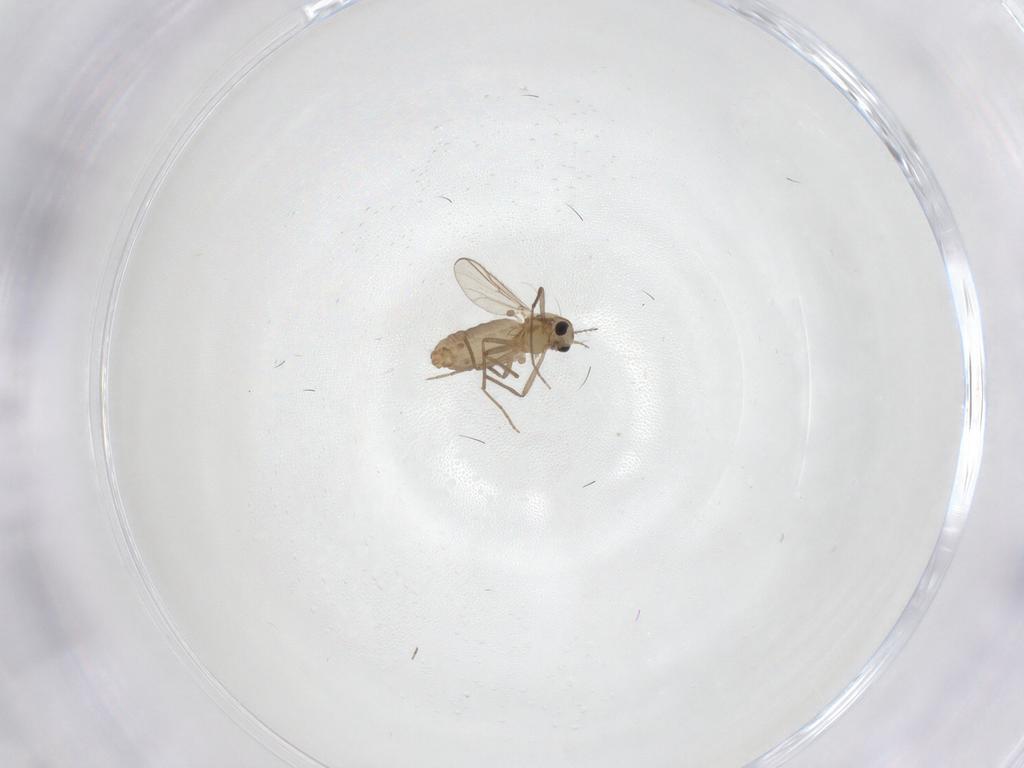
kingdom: Animalia
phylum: Arthropoda
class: Insecta
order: Diptera
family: Chironomidae
